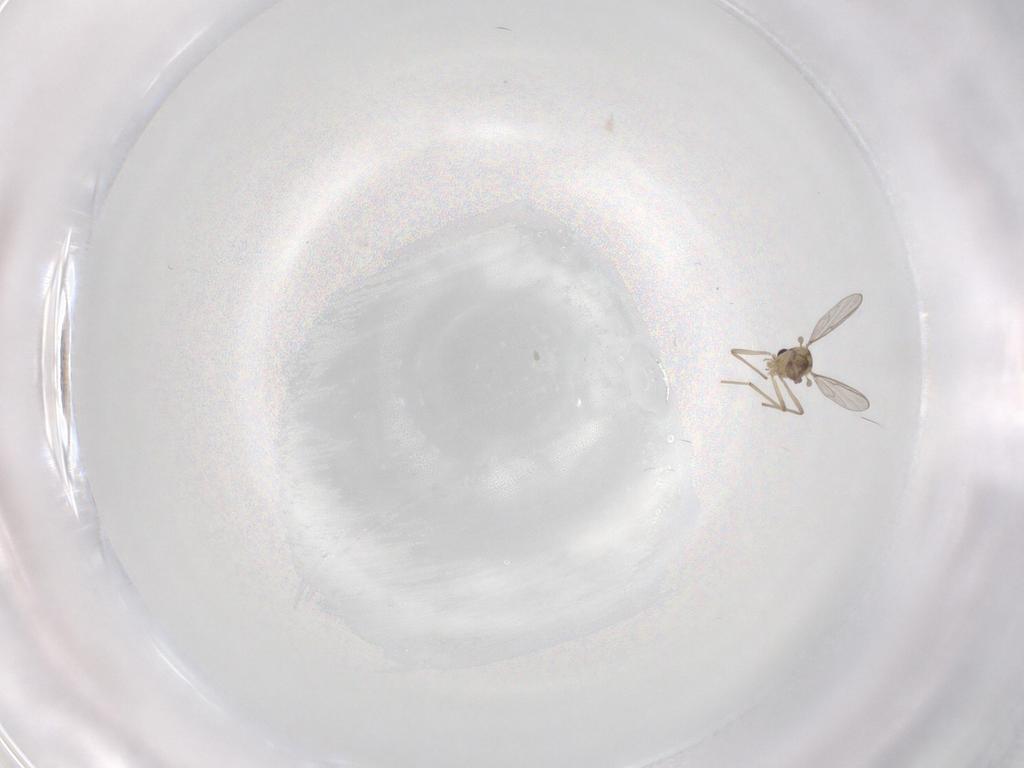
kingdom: Animalia
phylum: Arthropoda
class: Insecta
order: Diptera
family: Chironomidae
